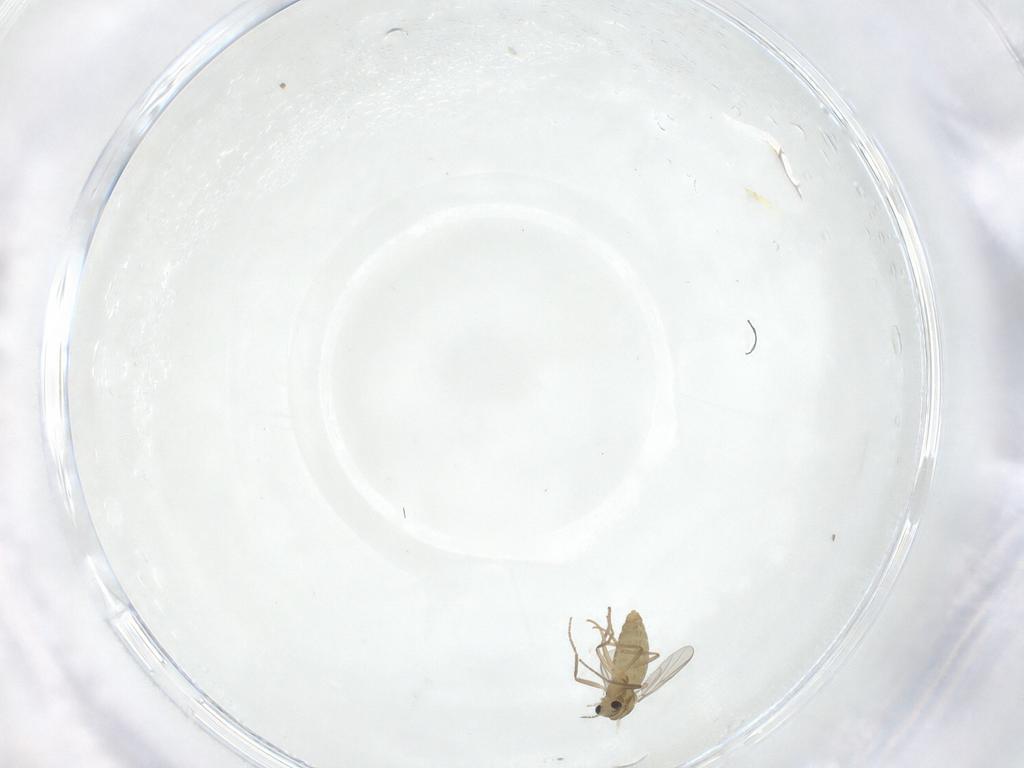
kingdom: Animalia
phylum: Arthropoda
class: Insecta
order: Diptera
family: Chironomidae
